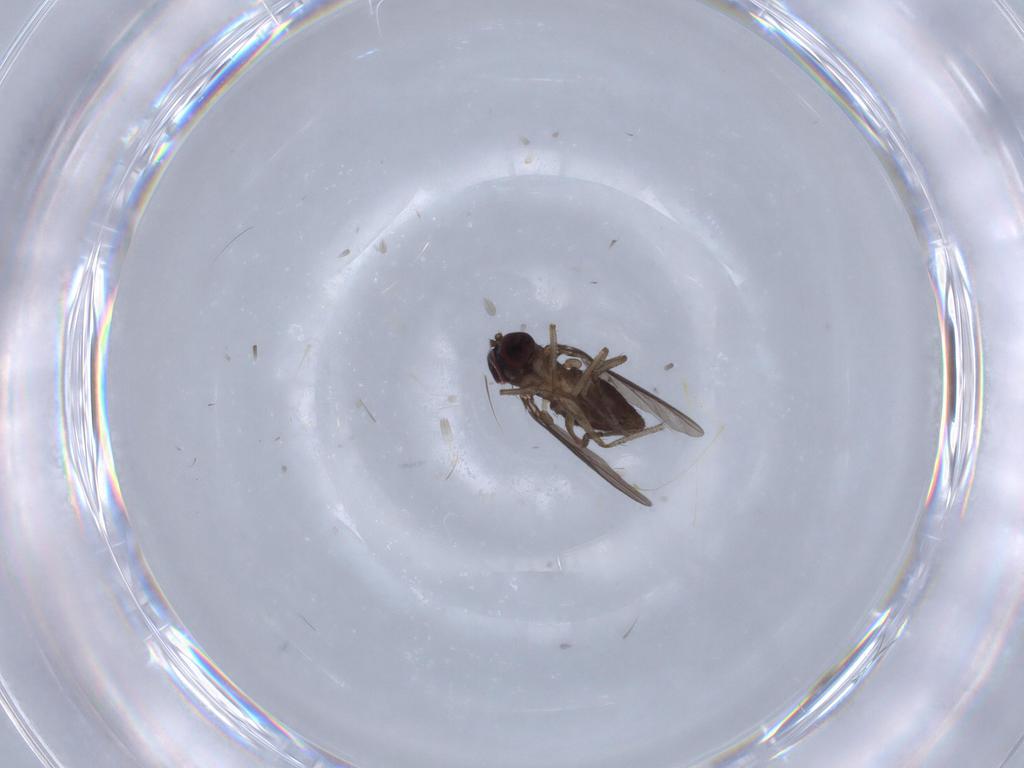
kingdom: Animalia
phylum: Arthropoda
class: Insecta
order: Diptera
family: Dolichopodidae
